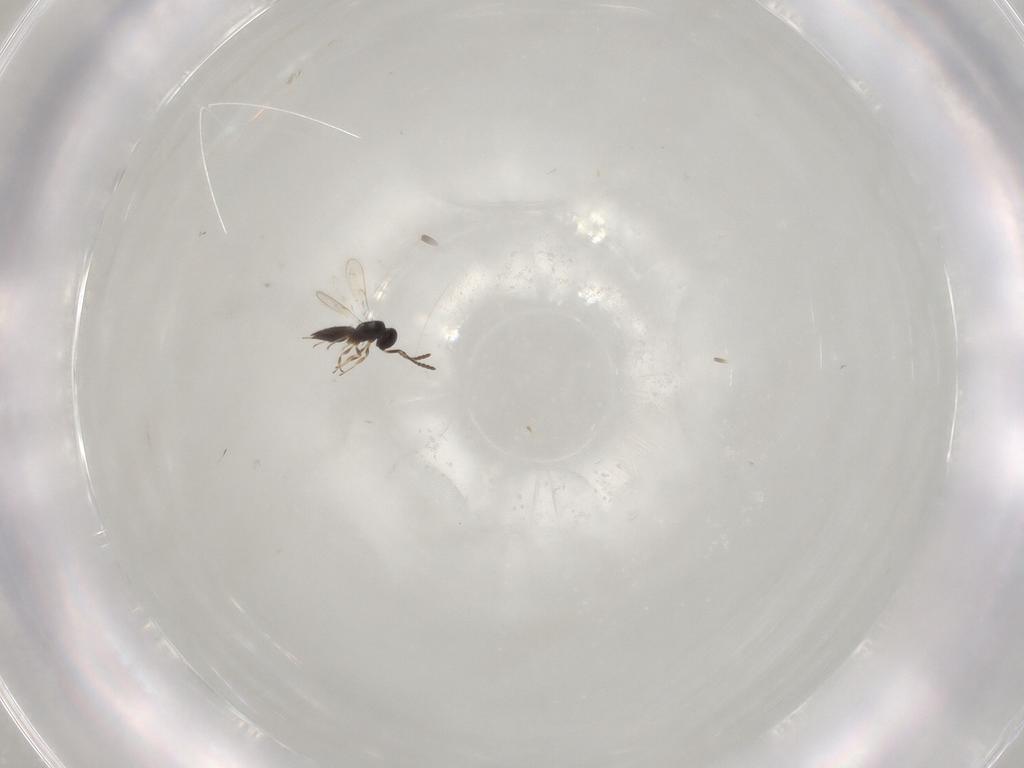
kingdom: Animalia
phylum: Arthropoda
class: Insecta
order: Hymenoptera
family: Scelionidae
